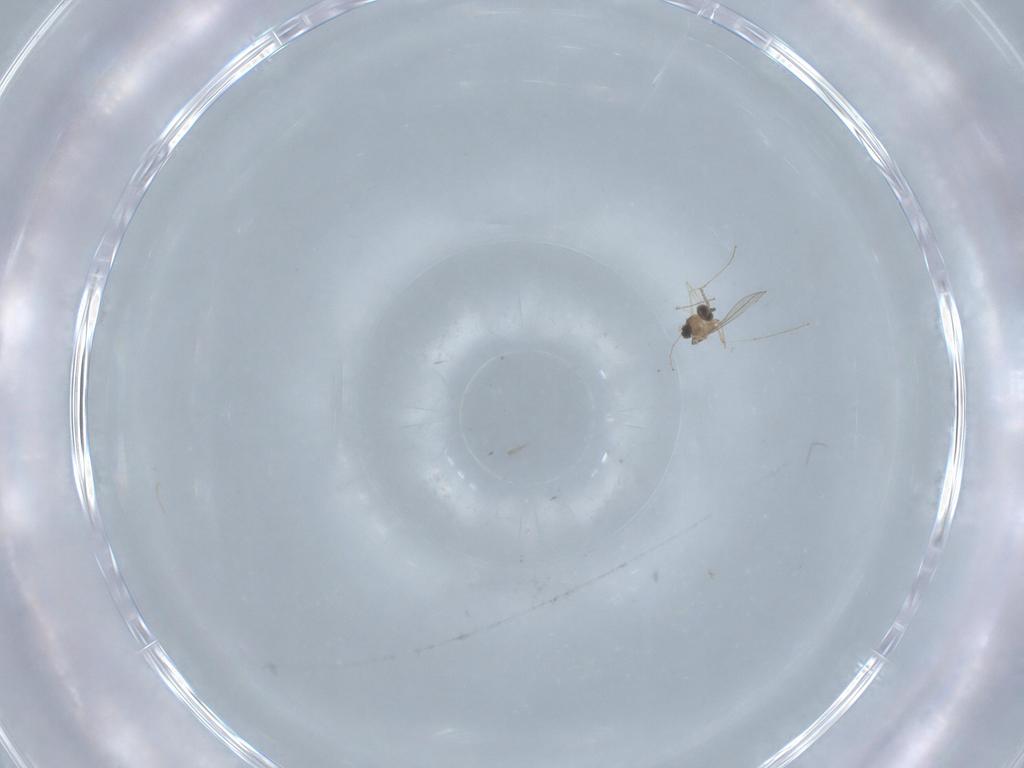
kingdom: Animalia
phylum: Arthropoda
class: Insecta
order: Diptera
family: Cecidomyiidae
